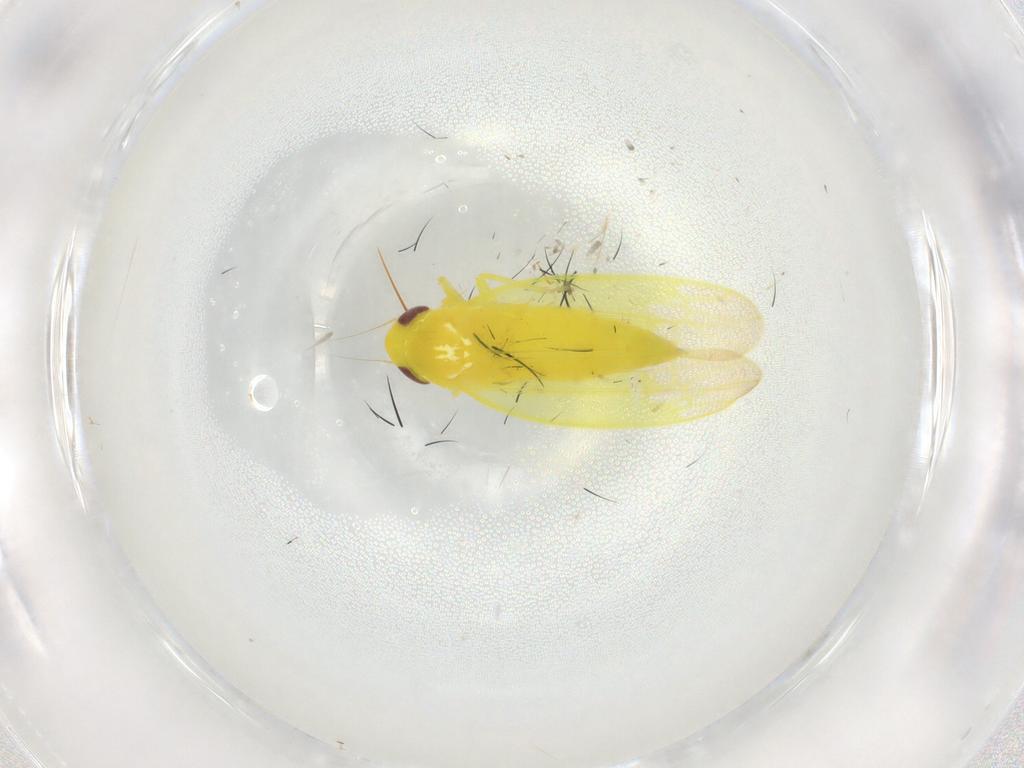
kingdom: Animalia
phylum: Arthropoda
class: Insecta
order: Hemiptera
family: Cicadellidae
